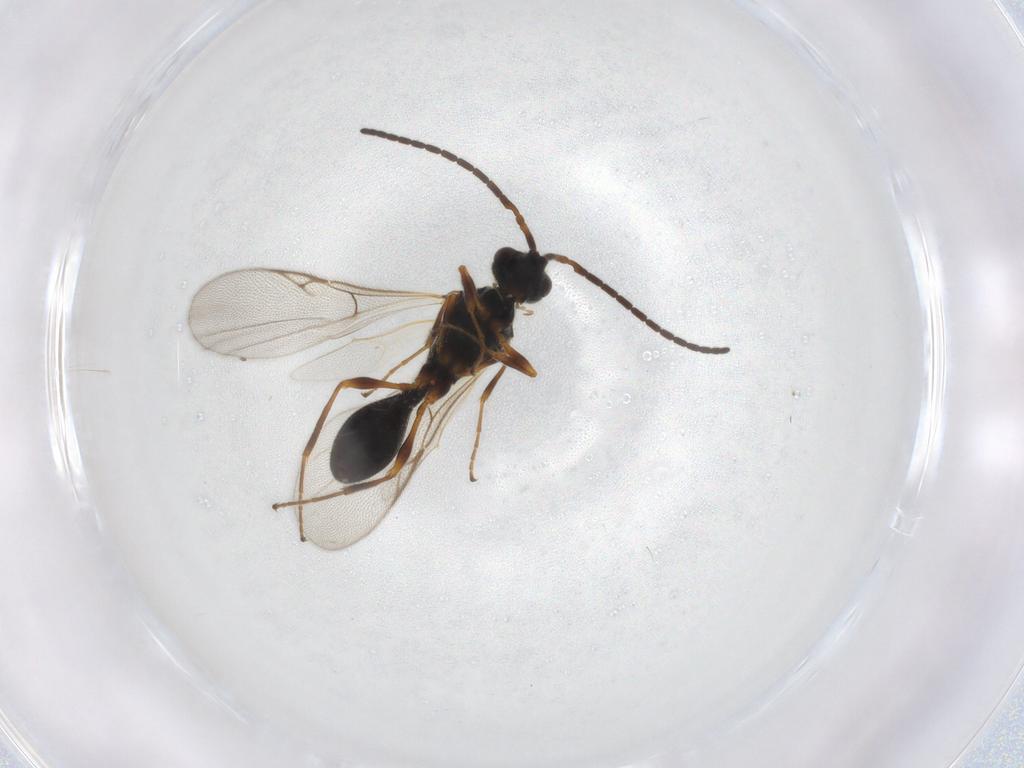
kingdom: Animalia
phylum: Arthropoda
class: Insecta
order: Hymenoptera
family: Diapriidae
